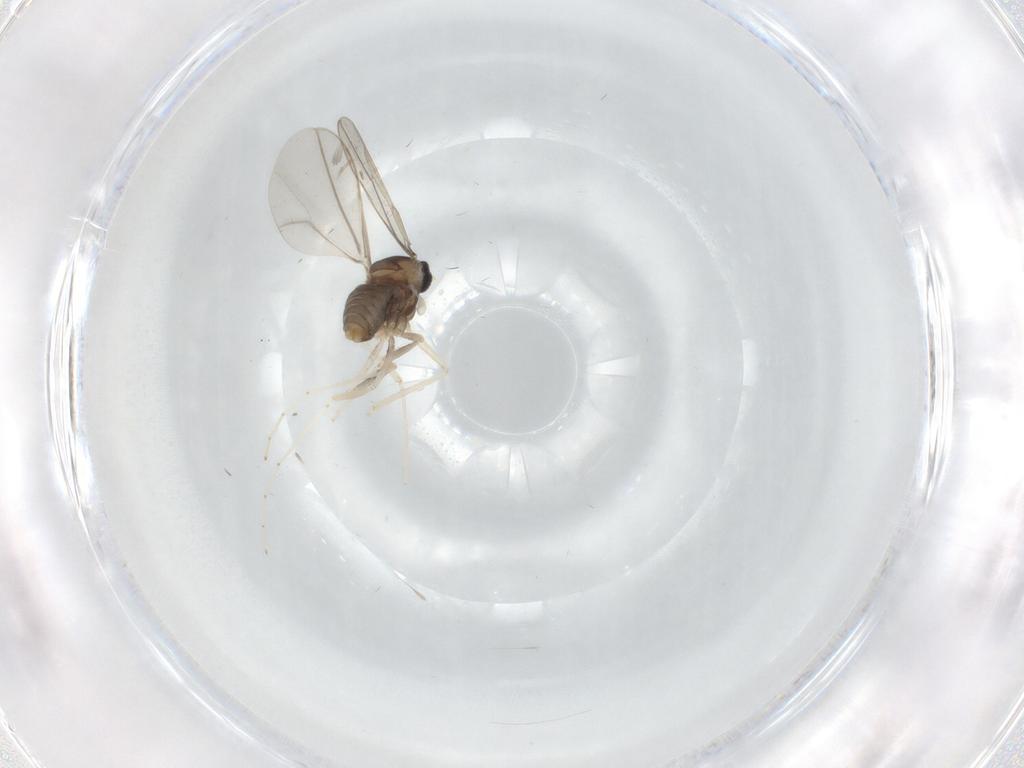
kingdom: Animalia
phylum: Arthropoda
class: Insecta
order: Diptera
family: Cecidomyiidae
